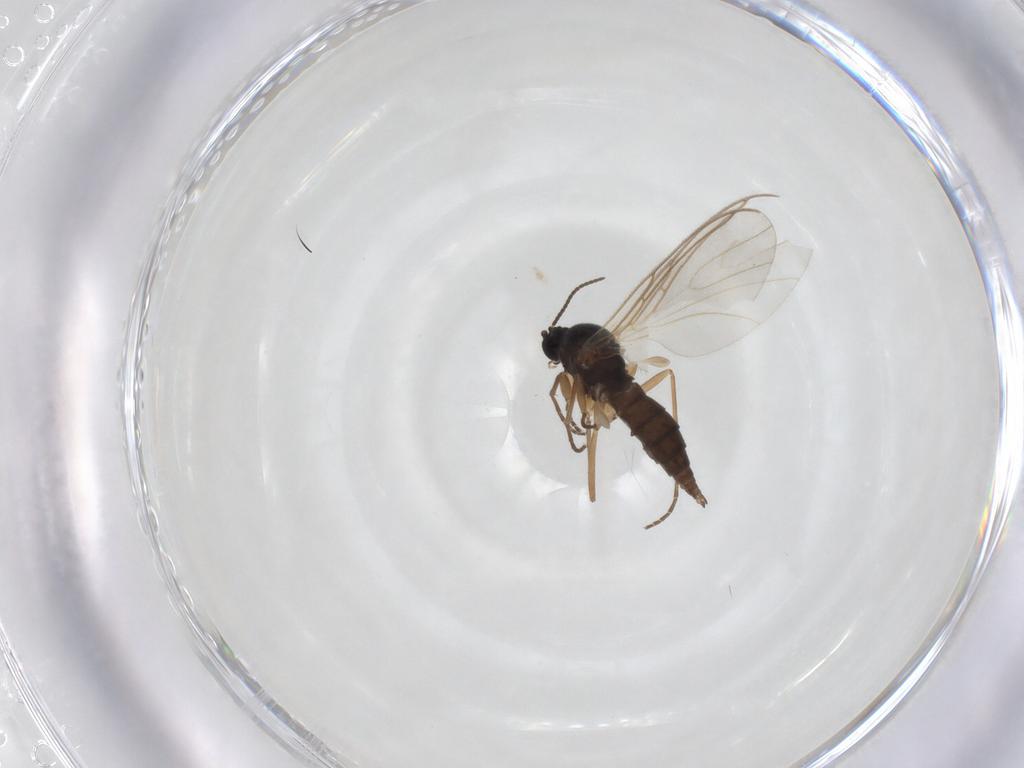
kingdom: Animalia
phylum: Arthropoda
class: Insecta
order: Diptera
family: Sciaridae
